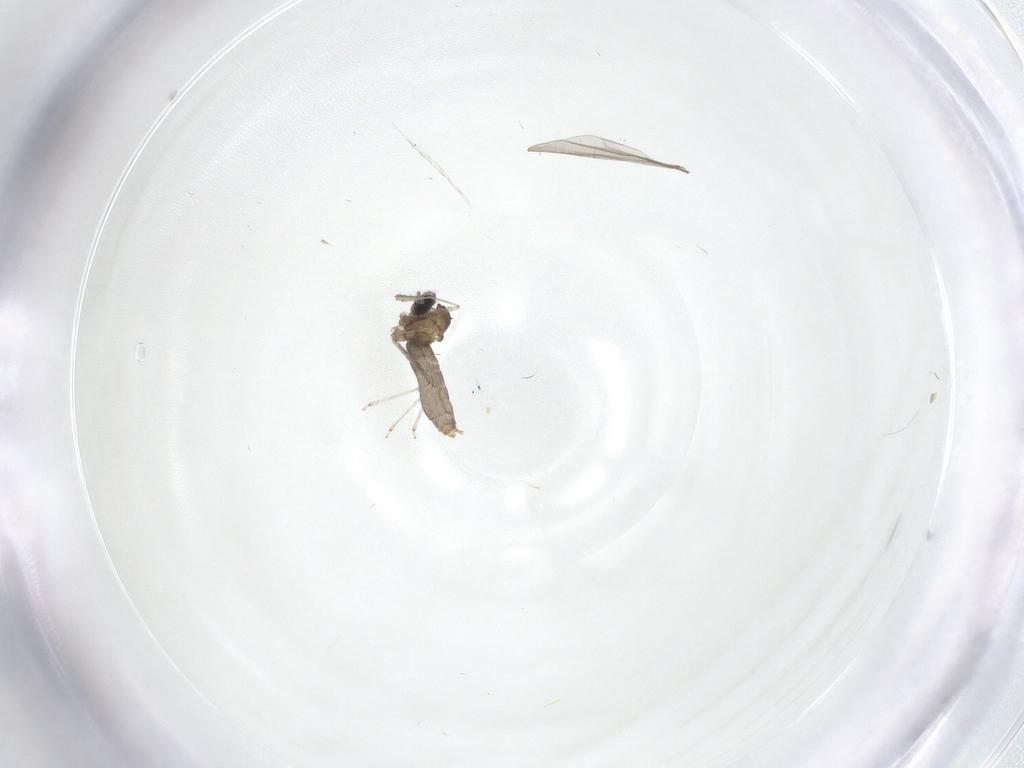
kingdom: Animalia
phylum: Arthropoda
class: Insecta
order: Diptera
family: Cecidomyiidae
